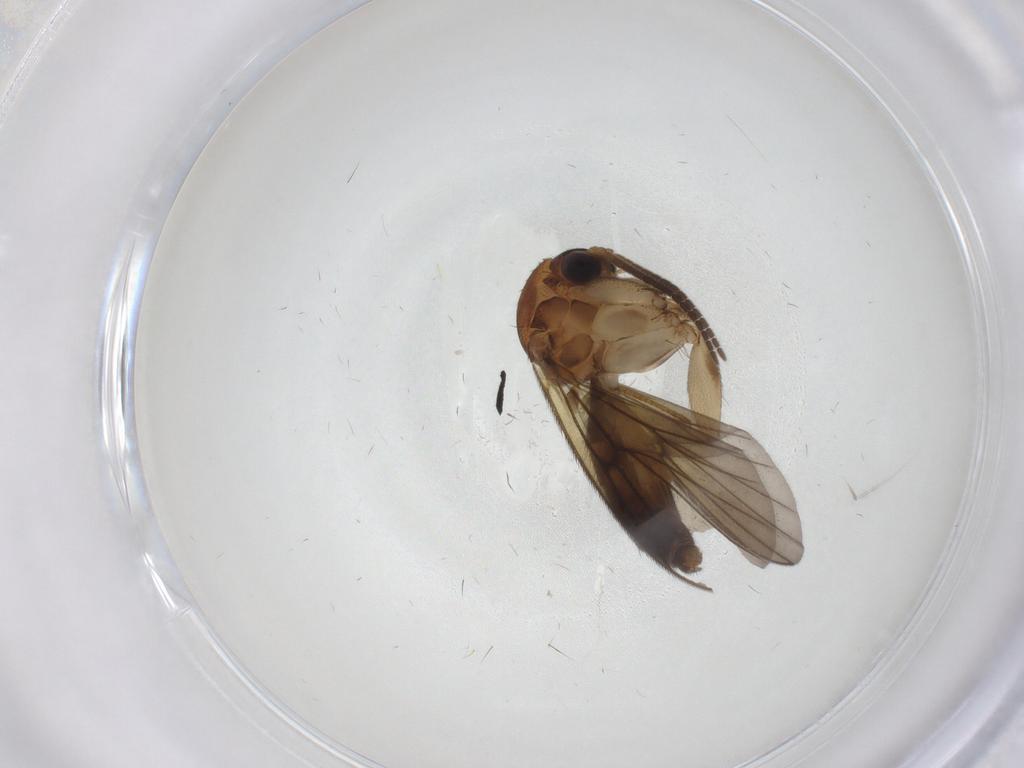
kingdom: Animalia
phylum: Arthropoda
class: Insecta
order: Diptera
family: Mycetophilidae
